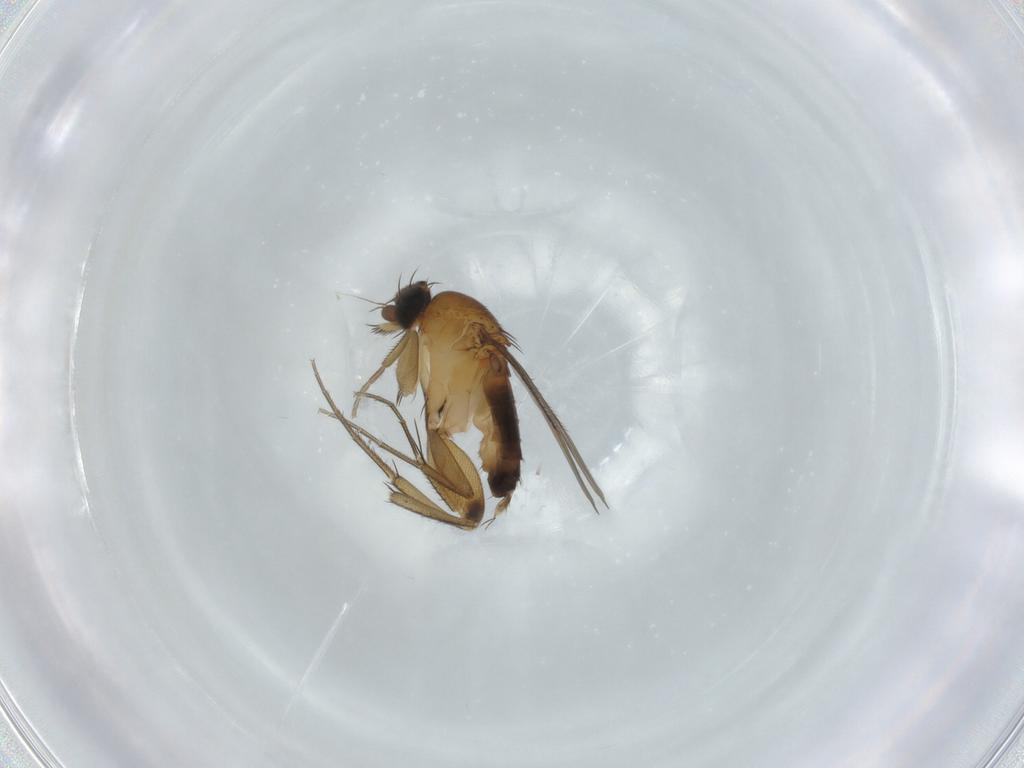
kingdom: Animalia
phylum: Arthropoda
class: Insecta
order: Diptera
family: Phoridae
